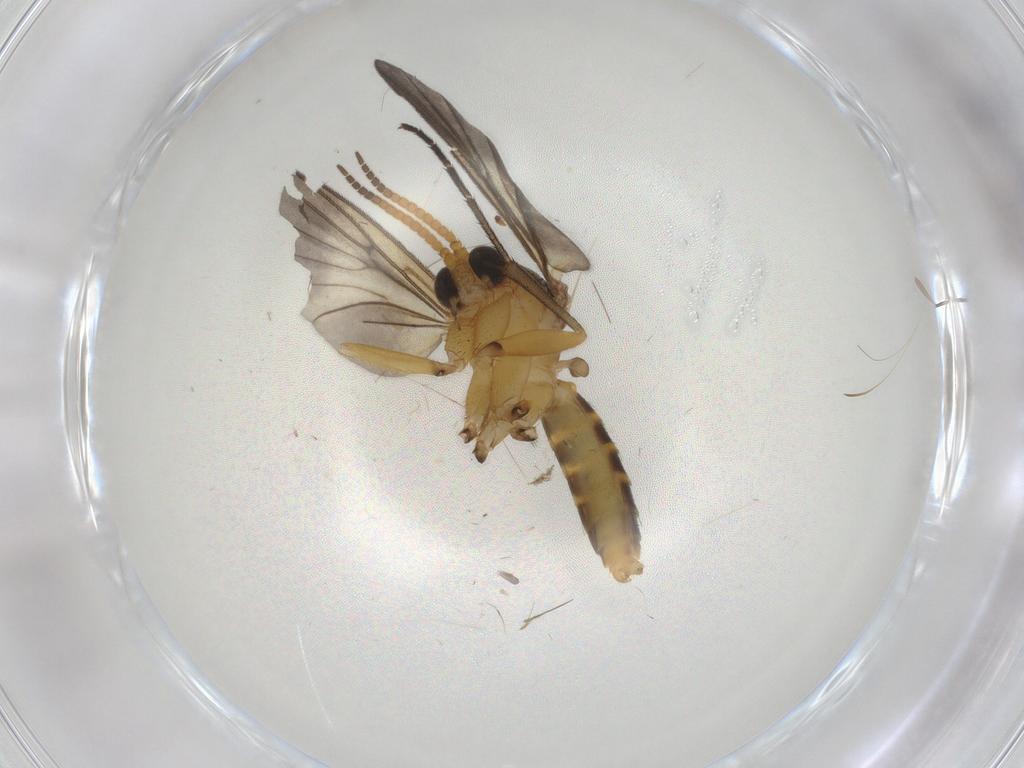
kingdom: Animalia
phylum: Arthropoda
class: Insecta
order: Diptera
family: Mycetophilidae
